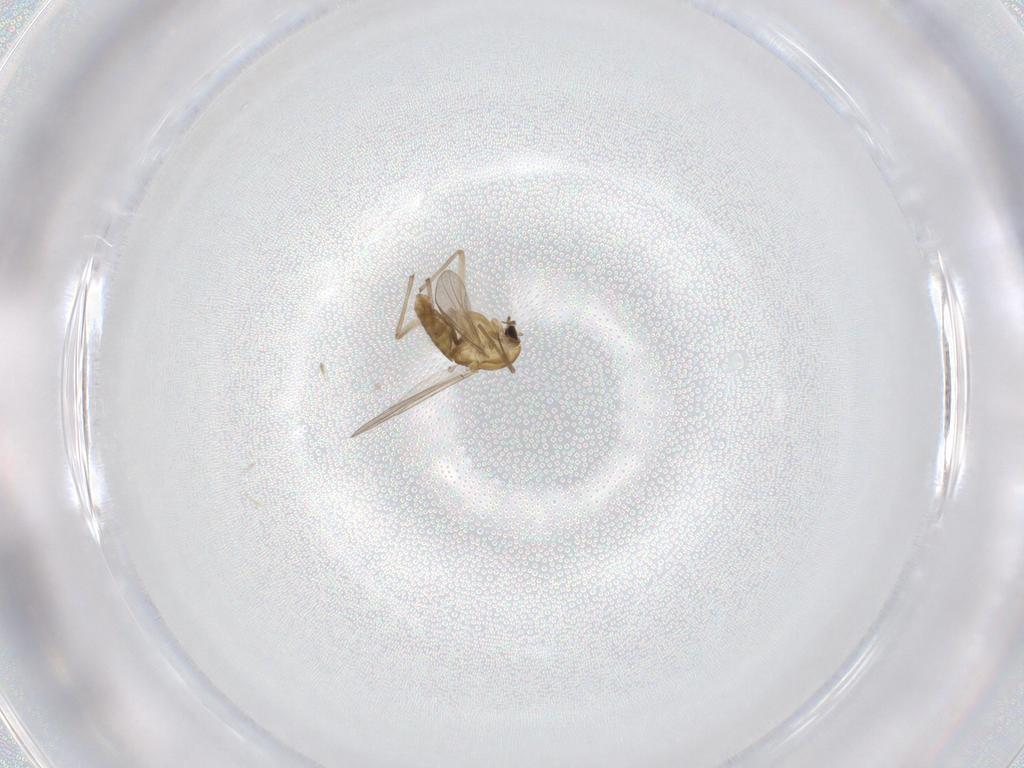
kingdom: Animalia
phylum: Arthropoda
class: Insecta
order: Diptera
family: Chironomidae
